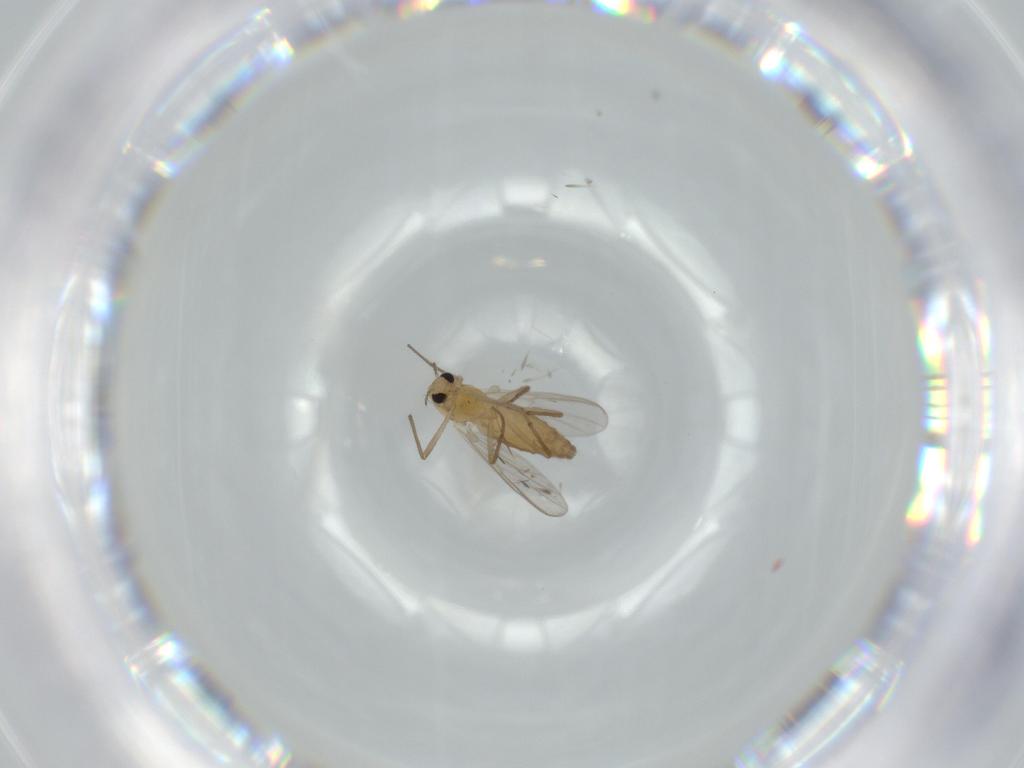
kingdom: Animalia
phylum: Arthropoda
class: Insecta
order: Diptera
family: Chironomidae
